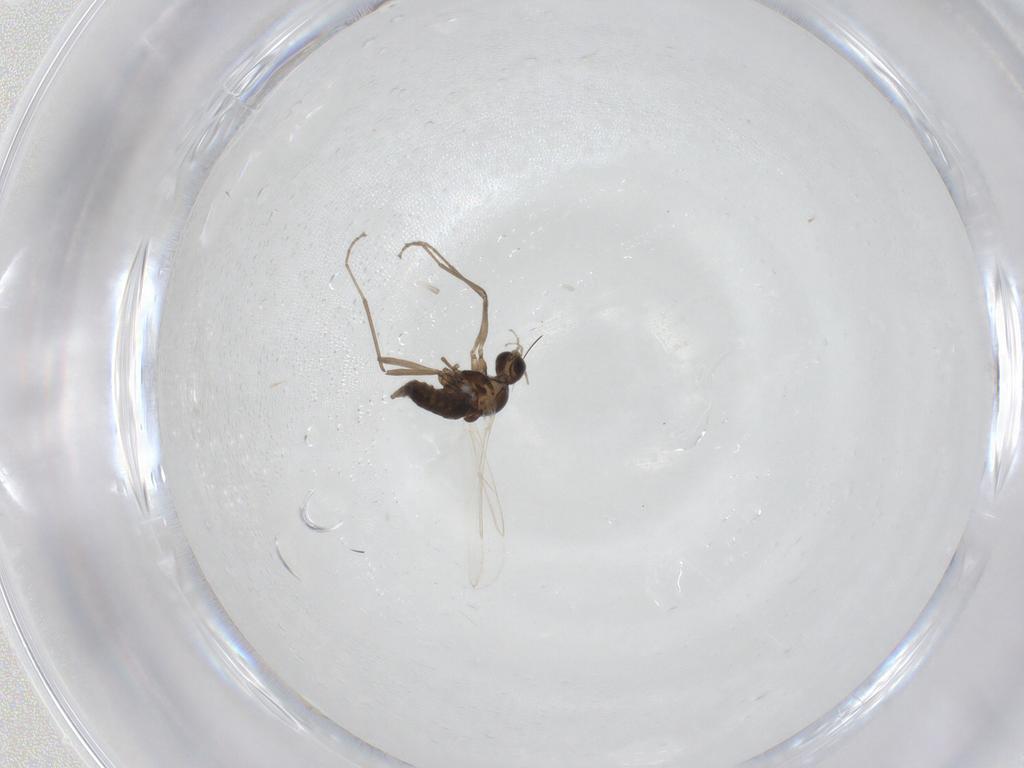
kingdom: Animalia
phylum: Arthropoda
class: Insecta
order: Diptera
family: Cecidomyiidae
